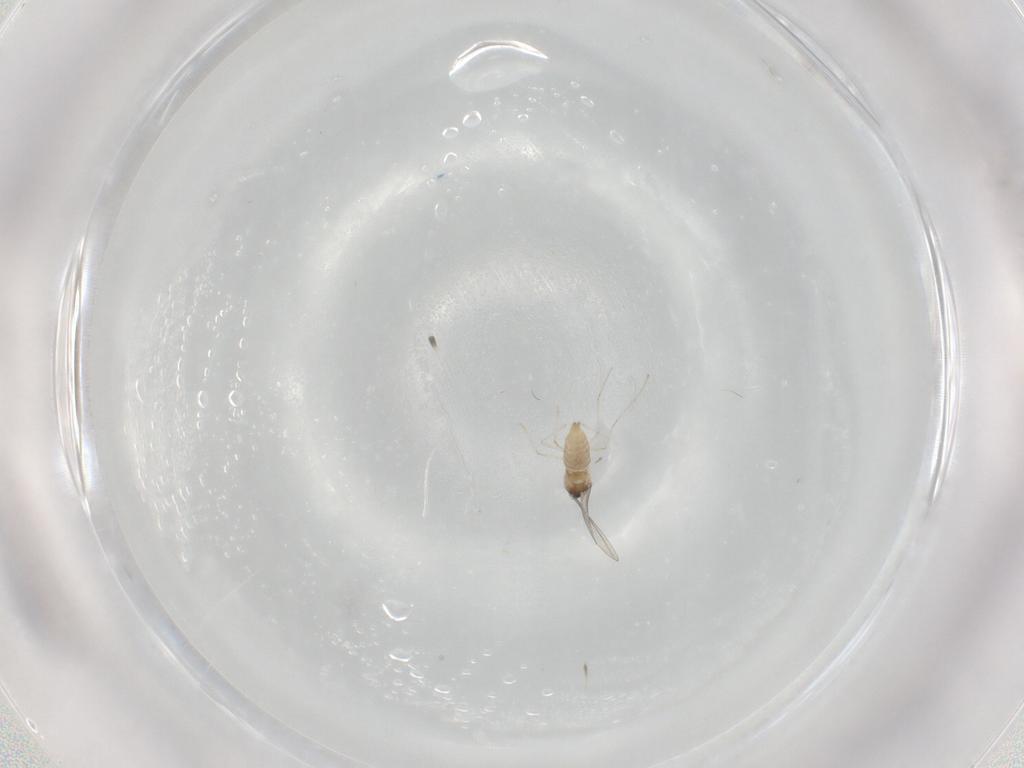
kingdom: Animalia
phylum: Arthropoda
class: Insecta
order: Diptera
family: Cecidomyiidae
